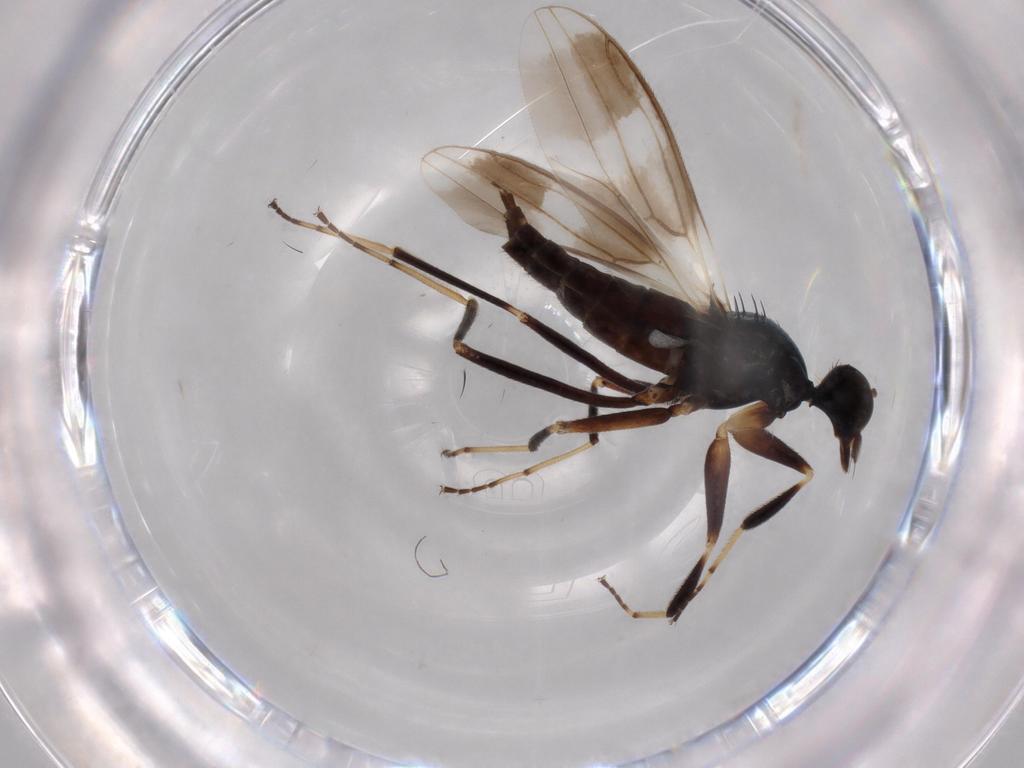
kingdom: Animalia
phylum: Arthropoda
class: Insecta
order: Diptera
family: Hybotidae
